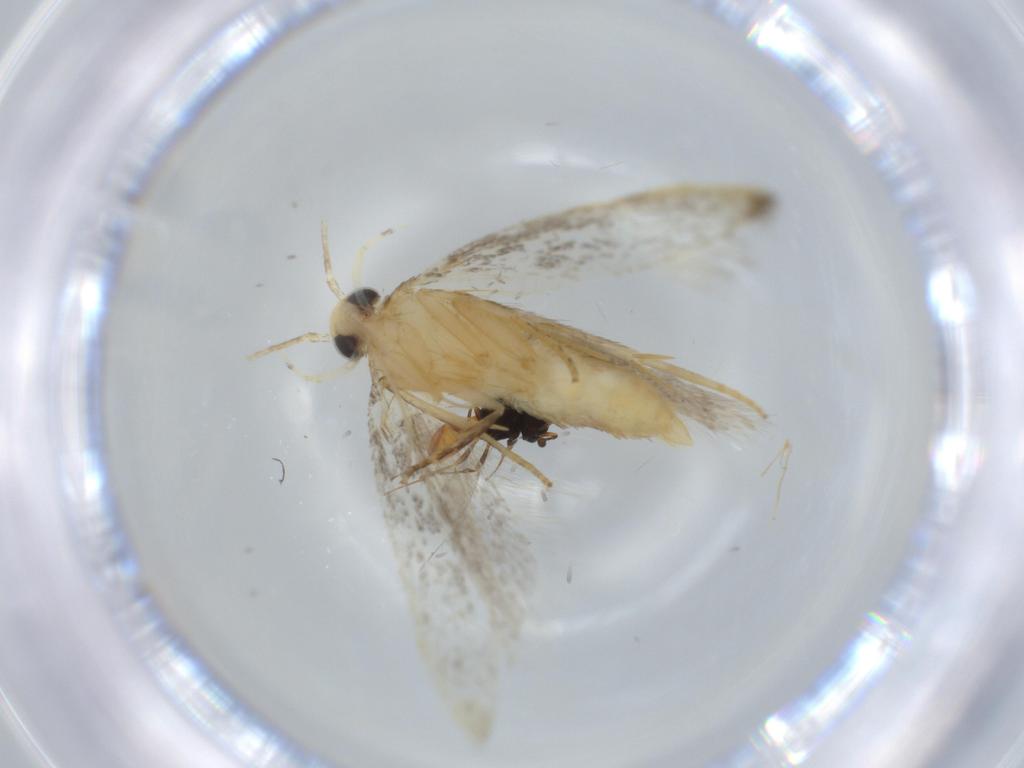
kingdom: Animalia
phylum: Arthropoda
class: Insecta
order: Lepidoptera
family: Autostichidae
